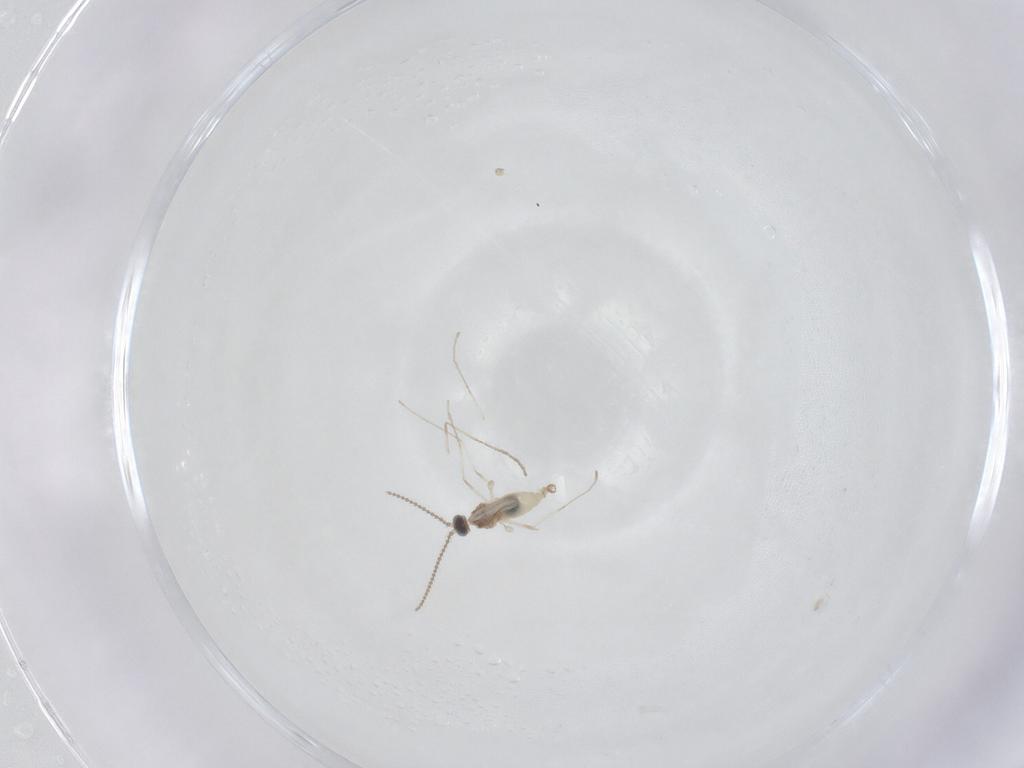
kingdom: Animalia
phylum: Arthropoda
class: Insecta
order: Diptera
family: Cecidomyiidae
